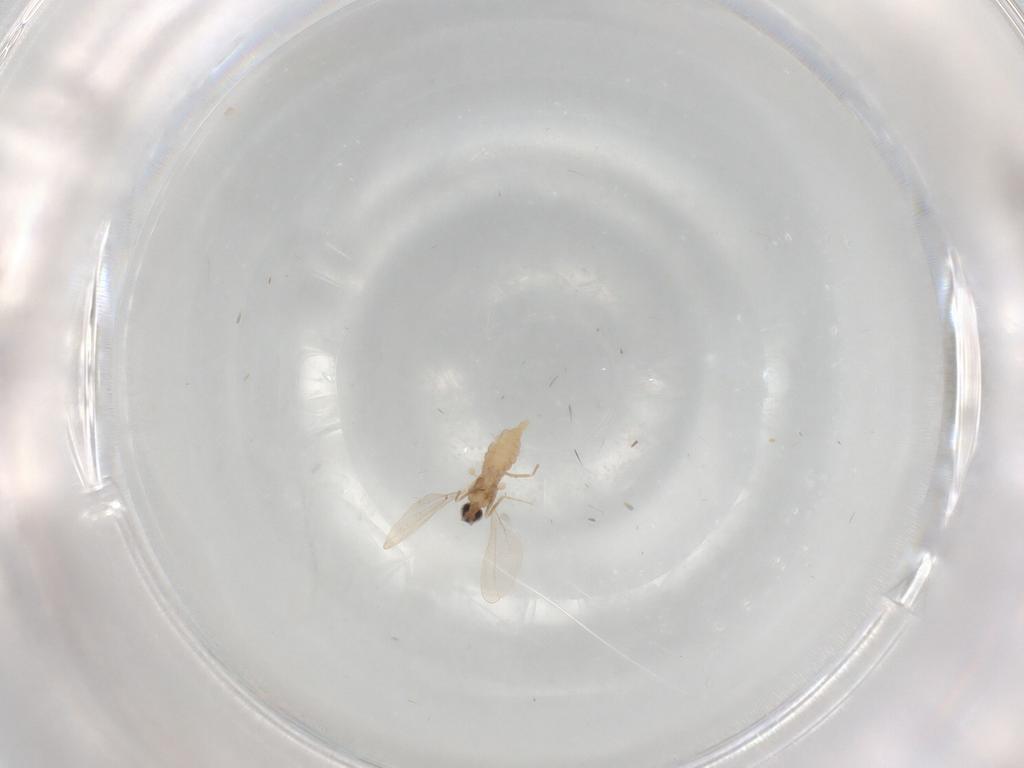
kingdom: Animalia
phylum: Arthropoda
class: Insecta
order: Diptera
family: Cecidomyiidae
